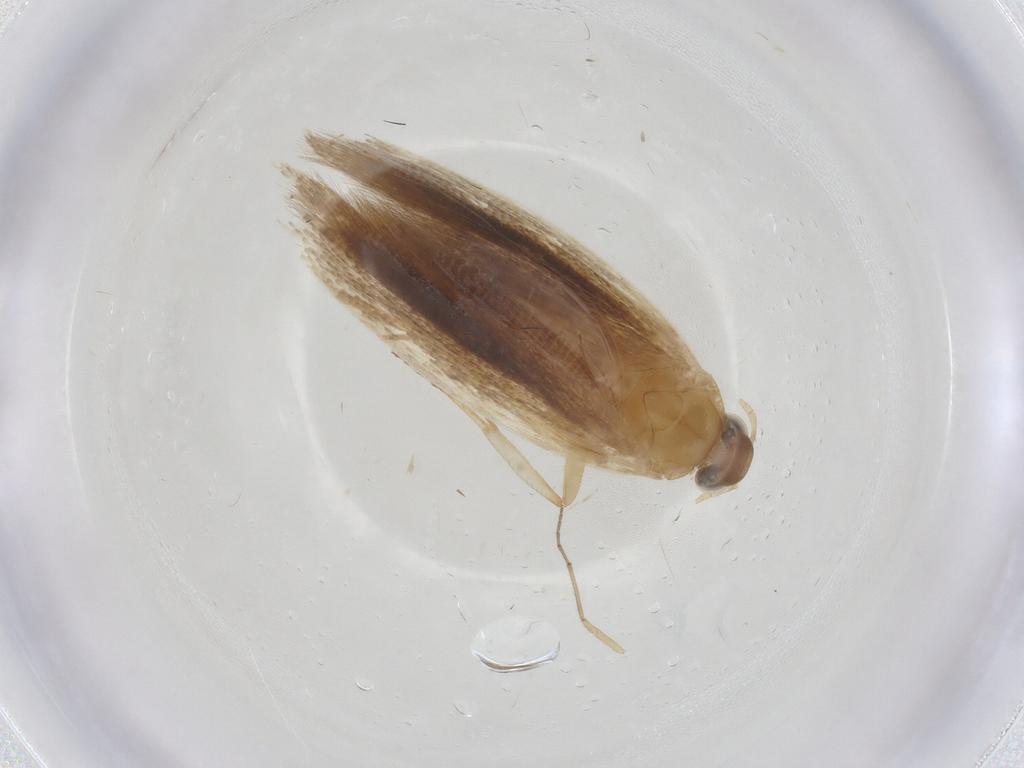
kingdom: Animalia
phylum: Arthropoda
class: Insecta
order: Lepidoptera
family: Gelechiidae
